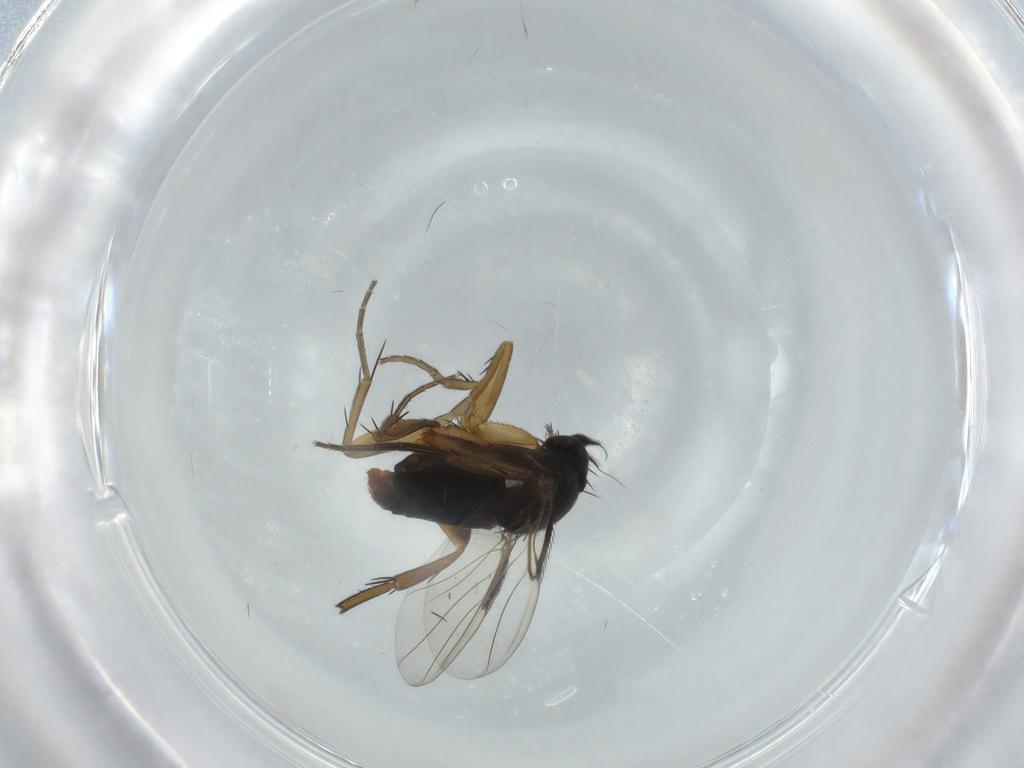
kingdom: Animalia
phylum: Arthropoda
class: Insecta
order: Diptera
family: Phoridae
